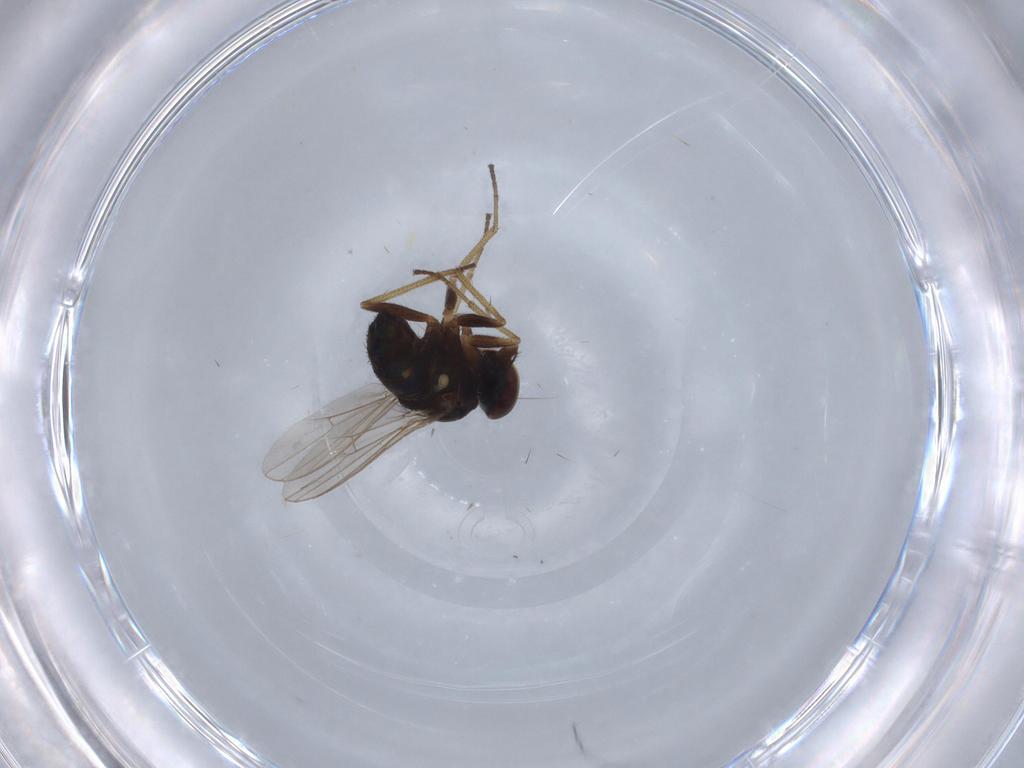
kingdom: Animalia
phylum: Arthropoda
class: Insecta
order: Diptera
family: Dolichopodidae
